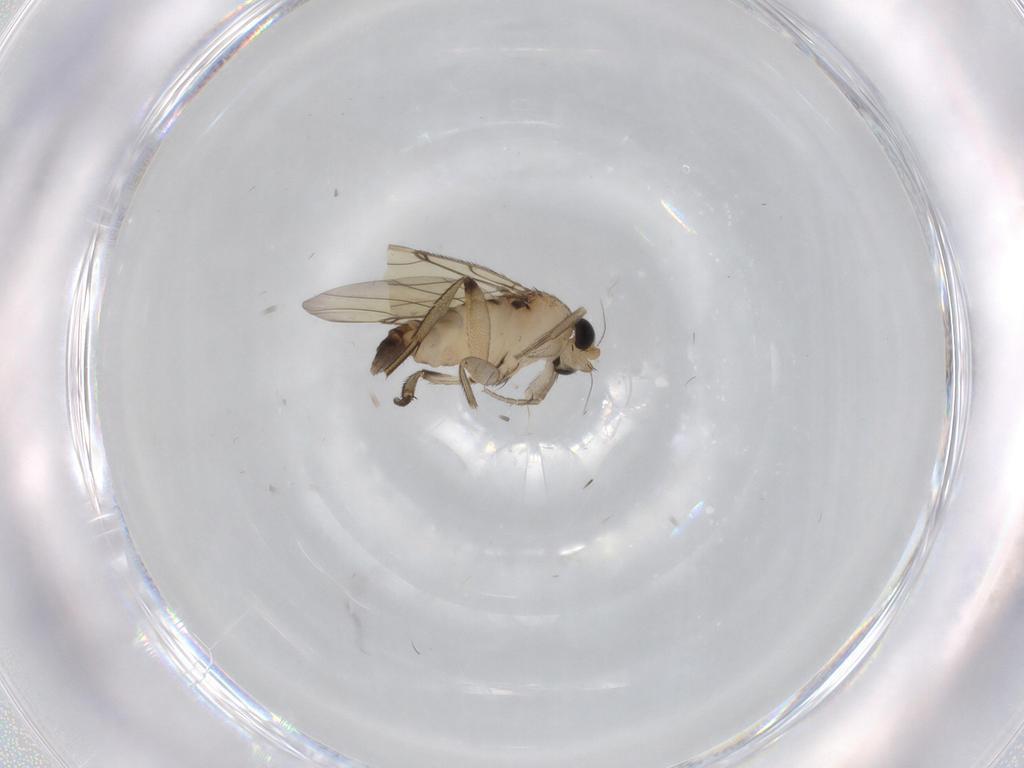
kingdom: Animalia
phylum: Arthropoda
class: Insecta
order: Diptera
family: Phoridae
